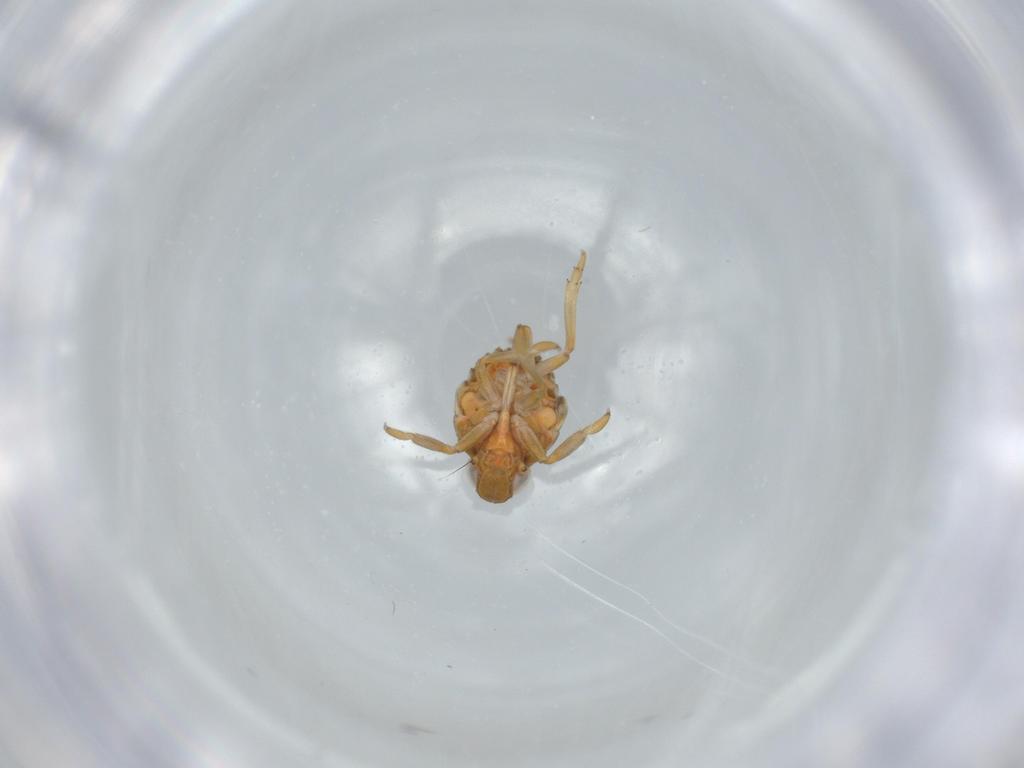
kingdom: Animalia
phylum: Arthropoda
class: Insecta
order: Hemiptera
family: Issidae
